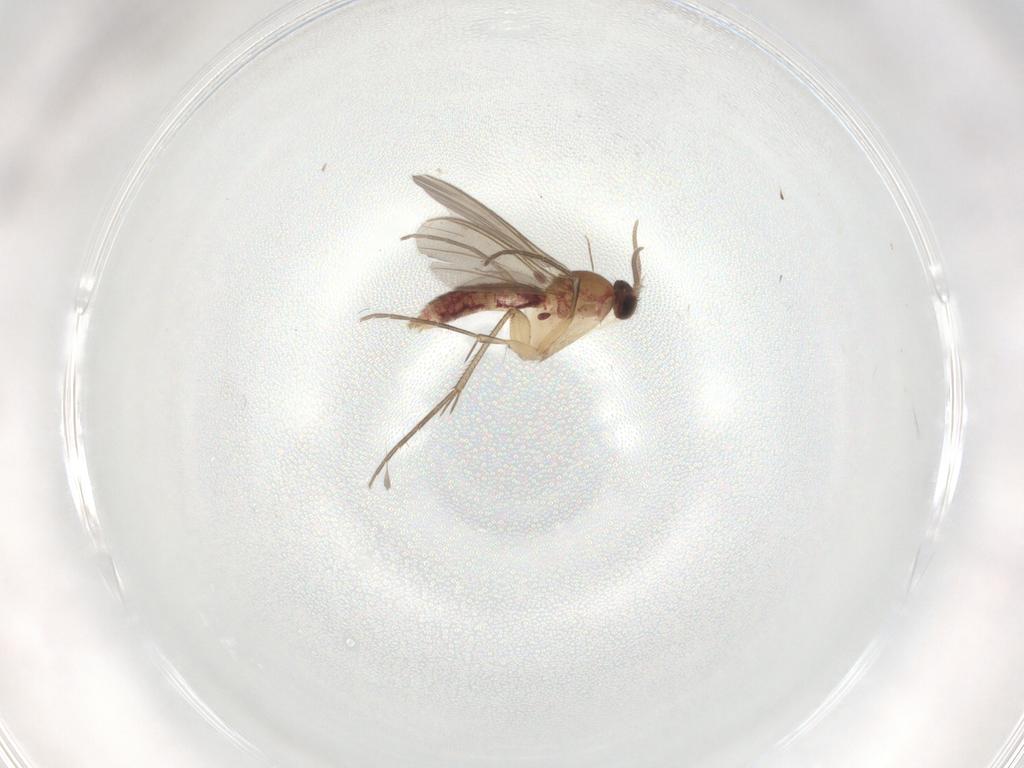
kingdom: Animalia
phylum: Arthropoda
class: Insecta
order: Diptera
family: Mycetophilidae
